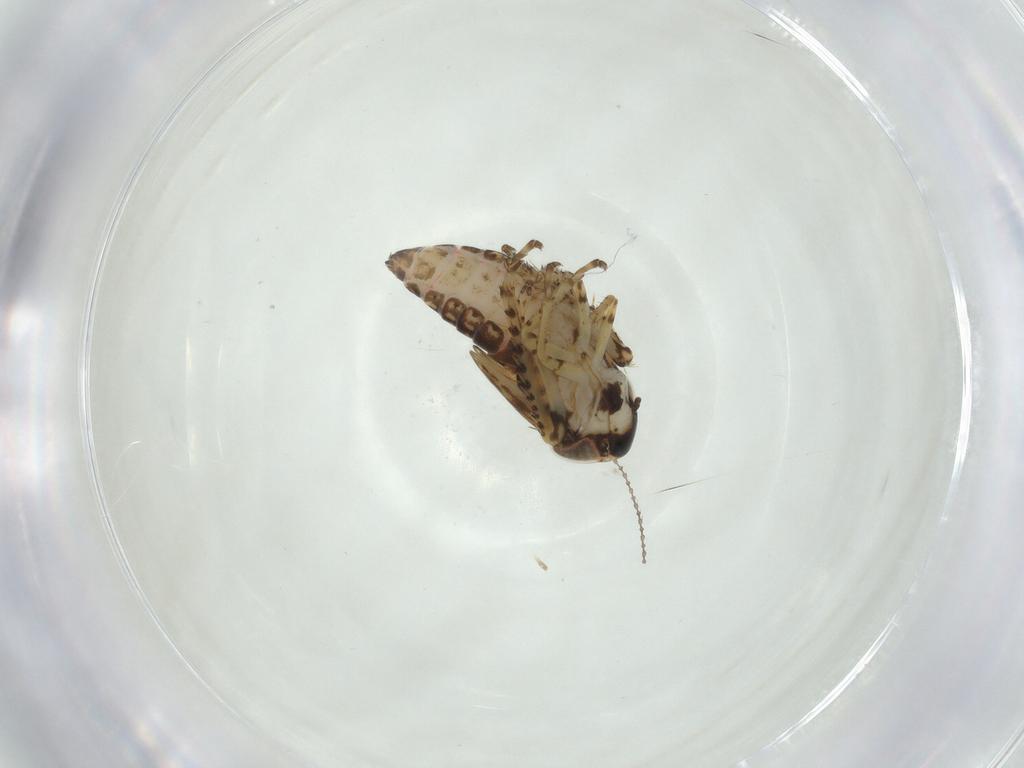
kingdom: Animalia
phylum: Arthropoda
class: Insecta
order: Hemiptera
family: Cicadellidae
